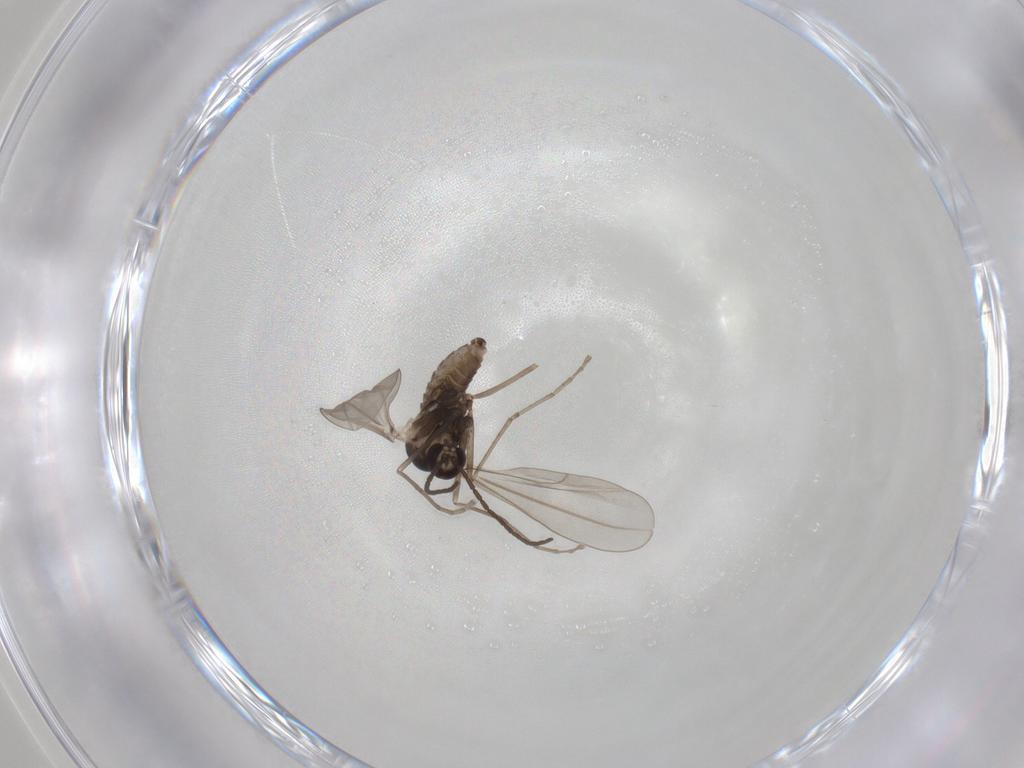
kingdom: Animalia
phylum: Arthropoda
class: Insecta
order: Diptera
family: Cecidomyiidae
